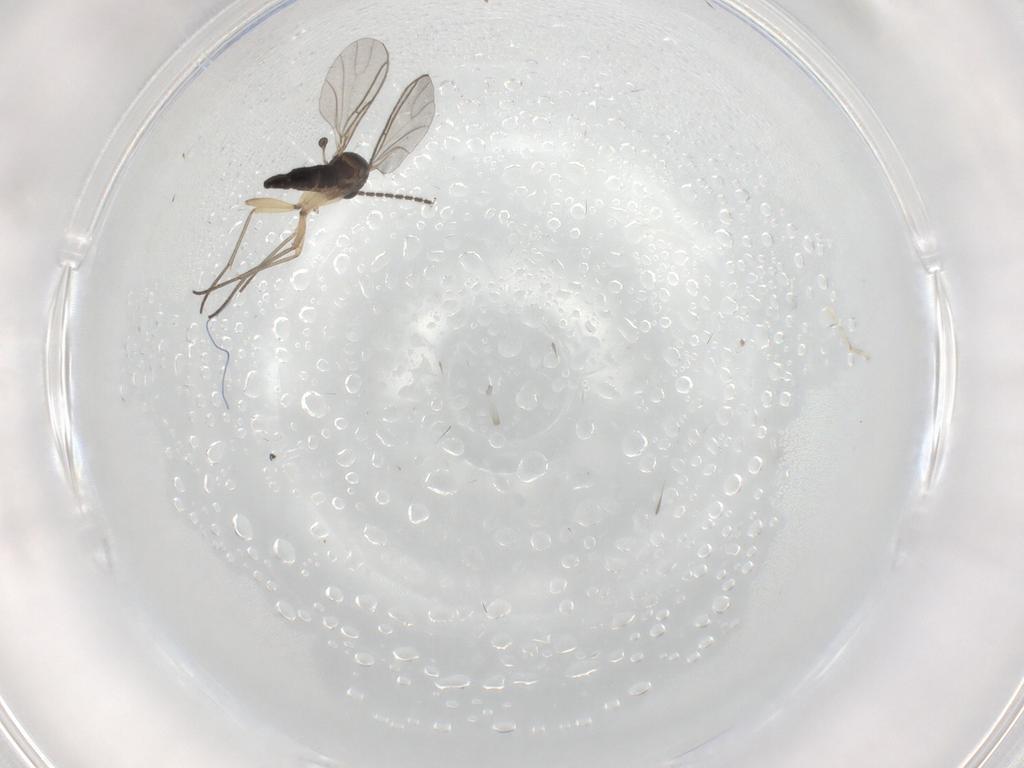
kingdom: Animalia
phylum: Arthropoda
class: Insecta
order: Diptera
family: Cecidomyiidae
